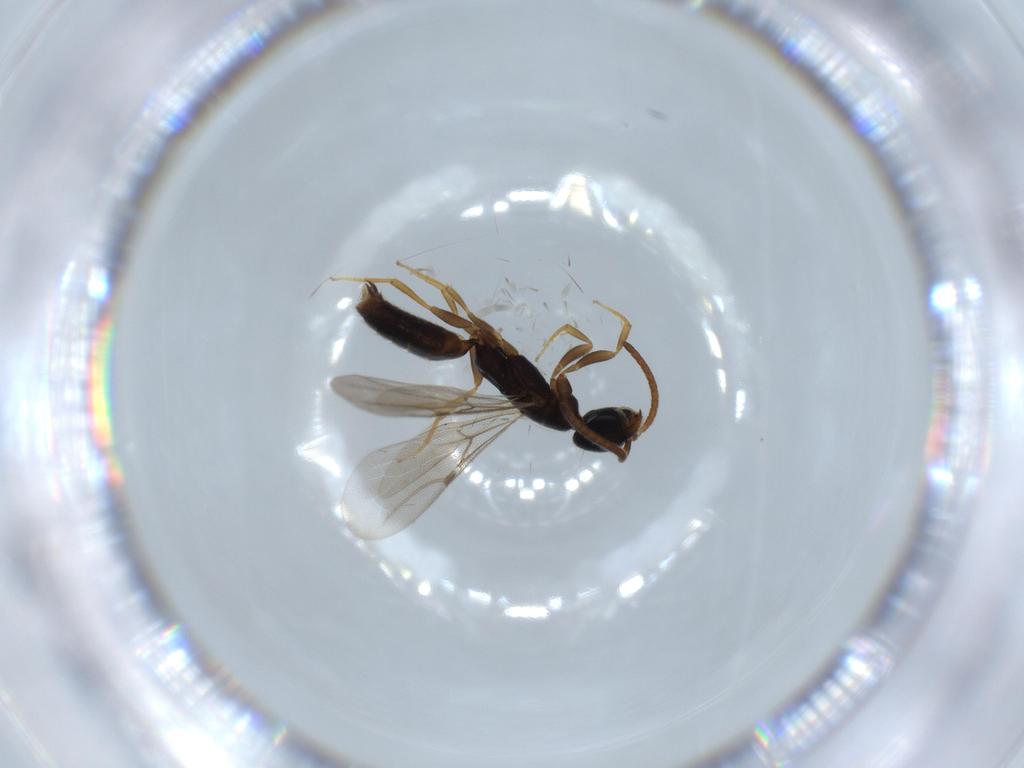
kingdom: Animalia
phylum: Arthropoda
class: Insecta
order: Hymenoptera
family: Bethylidae
